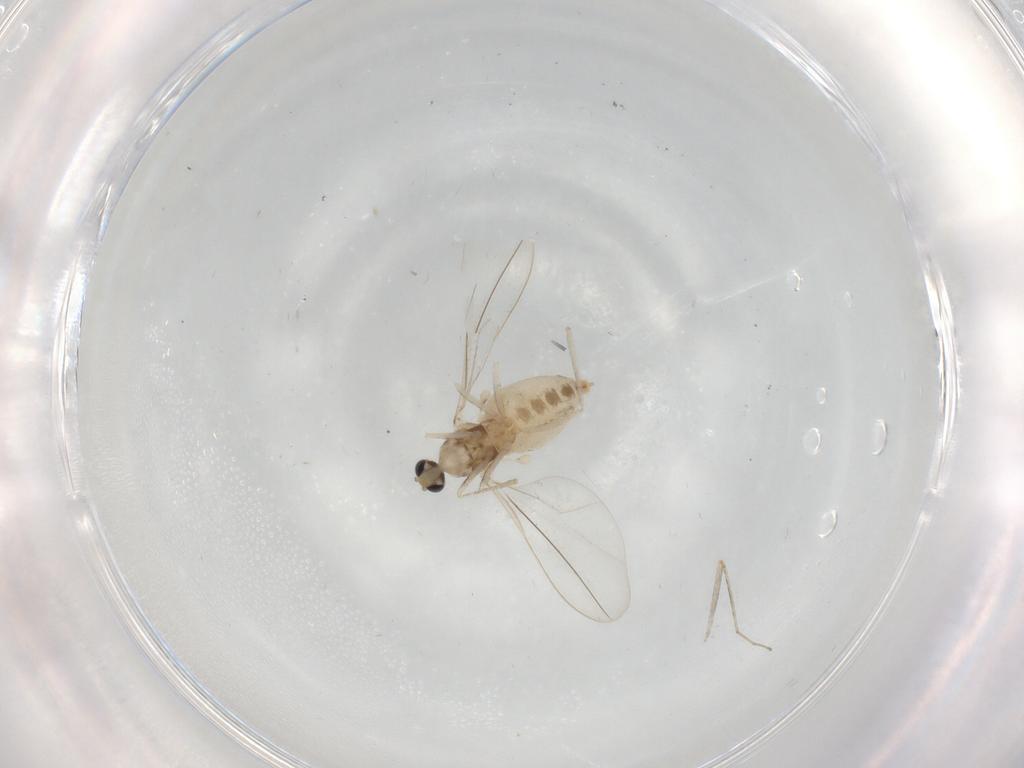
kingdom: Animalia
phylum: Arthropoda
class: Insecta
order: Diptera
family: Cecidomyiidae
